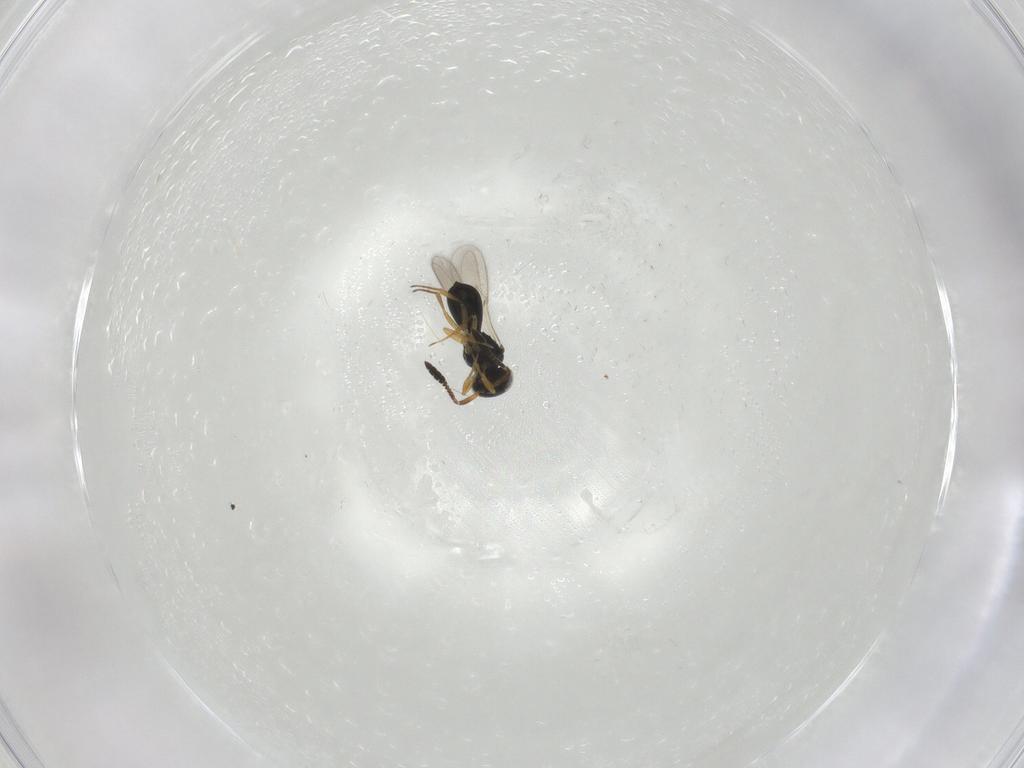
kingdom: Animalia
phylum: Arthropoda
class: Insecta
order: Hymenoptera
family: Scelionidae
